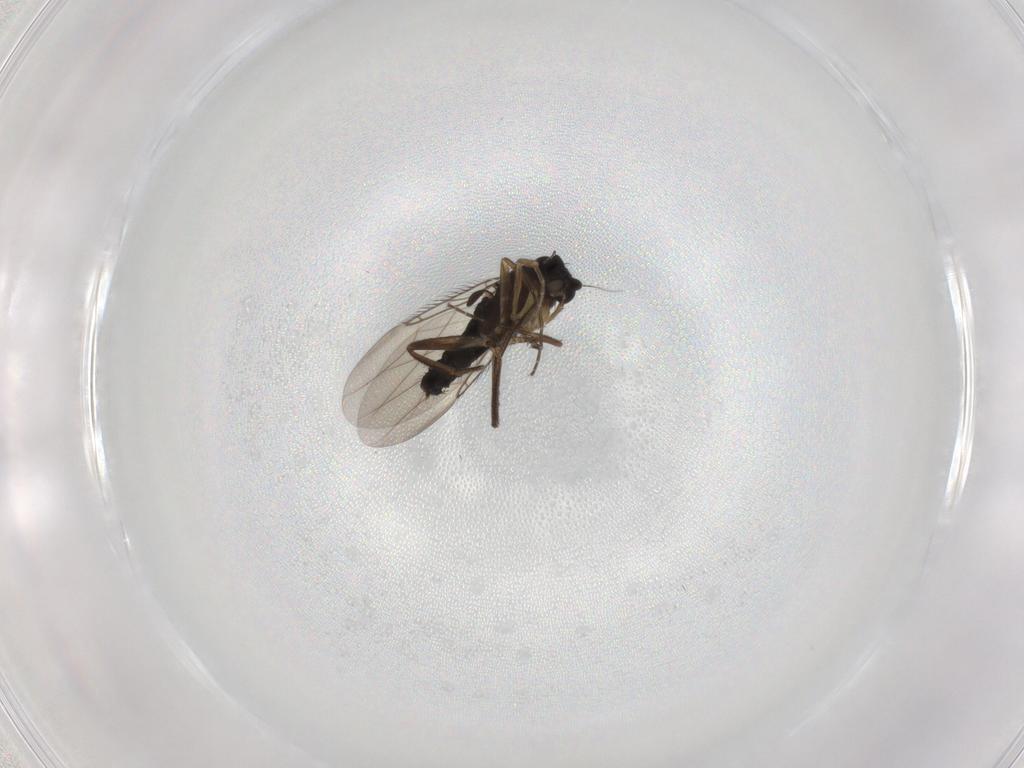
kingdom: Animalia
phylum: Arthropoda
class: Insecta
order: Diptera
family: Phoridae
